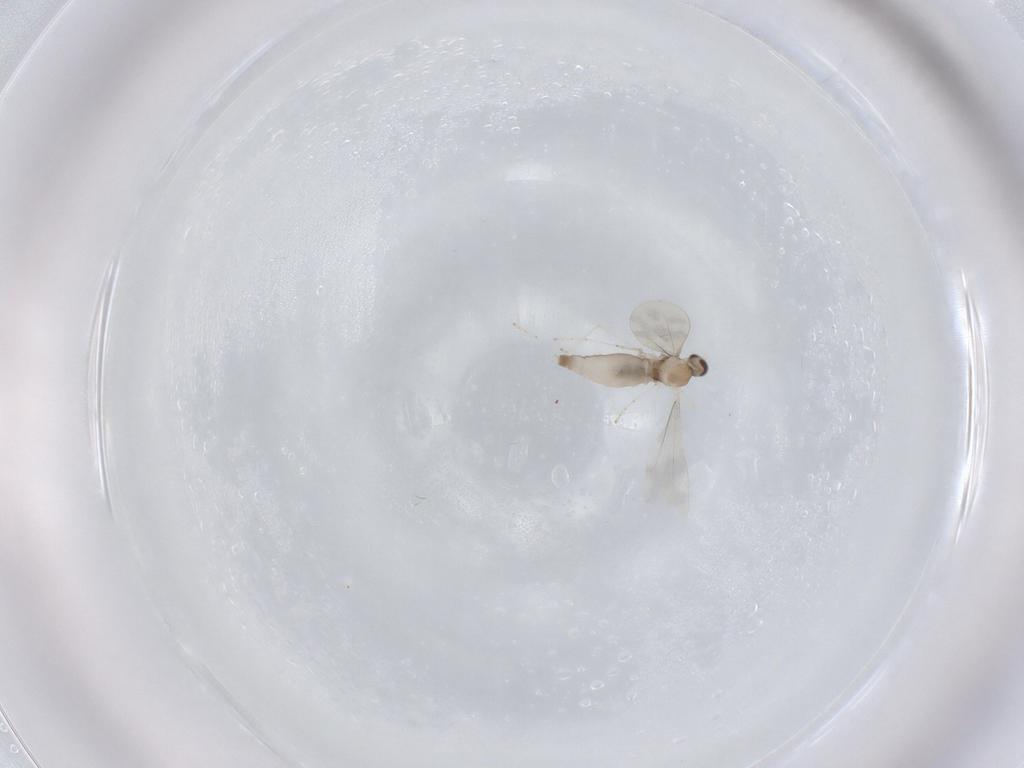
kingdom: Animalia
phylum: Arthropoda
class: Insecta
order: Diptera
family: Cecidomyiidae
